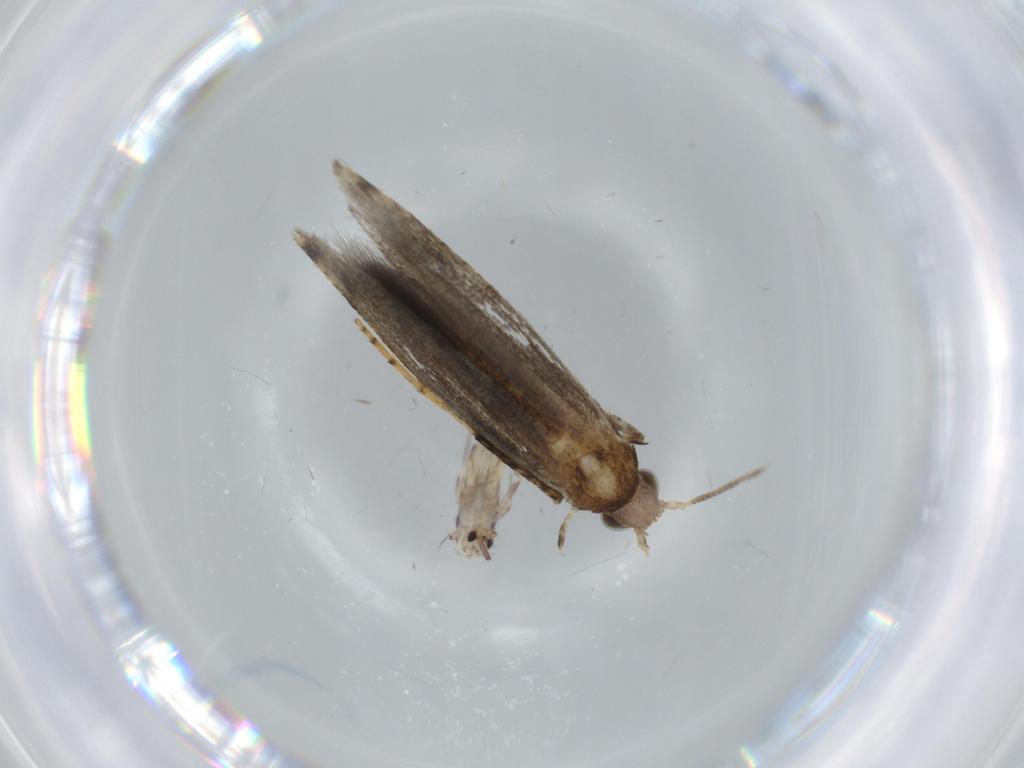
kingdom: Animalia
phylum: Arthropoda
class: Insecta
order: Lepidoptera
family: Gracillariidae
